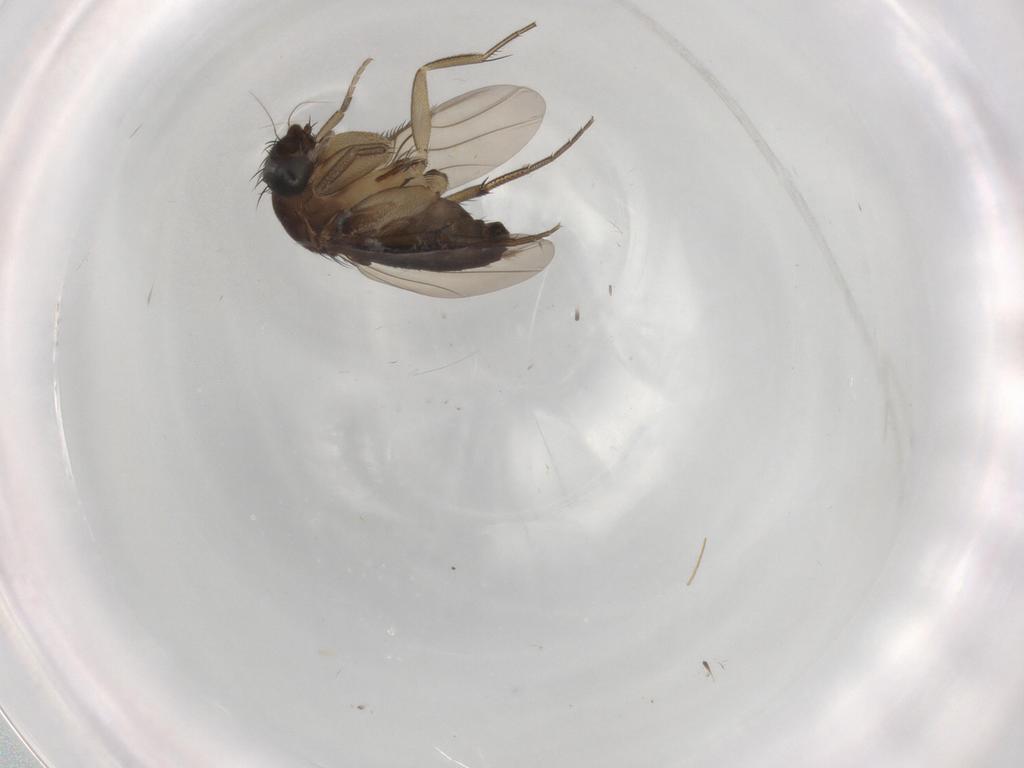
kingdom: Animalia
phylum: Arthropoda
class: Insecta
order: Diptera
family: Phoridae
